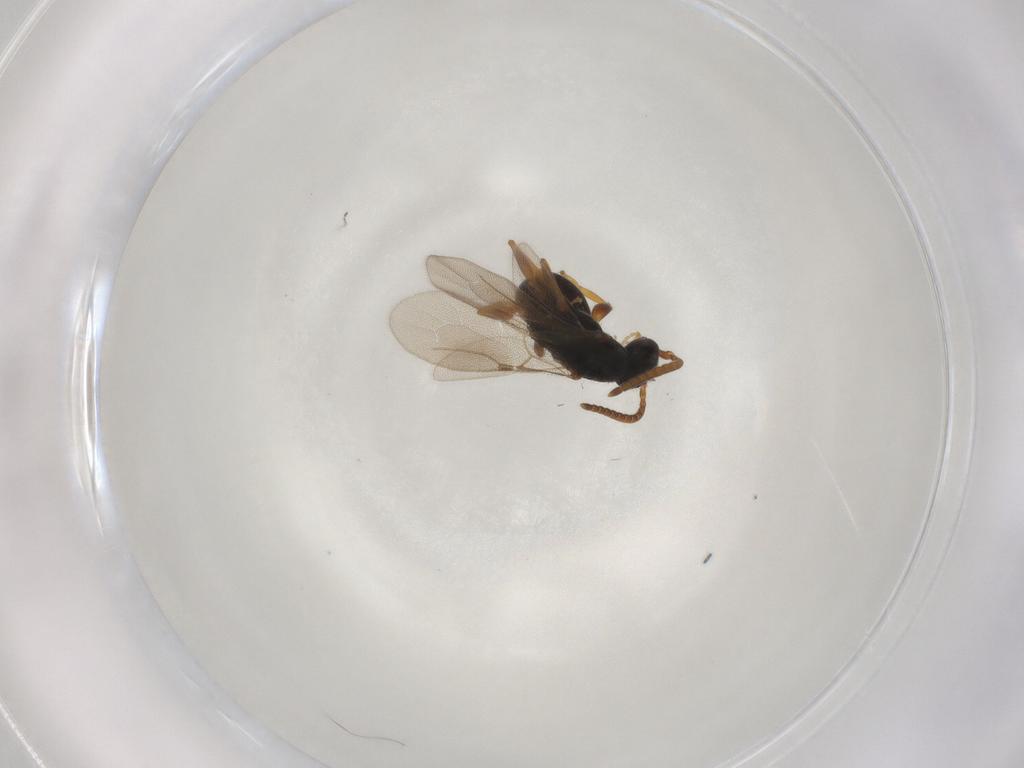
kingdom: Animalia
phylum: Arthropoda
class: Insecta
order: Hymenoptera
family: Bethylidae
